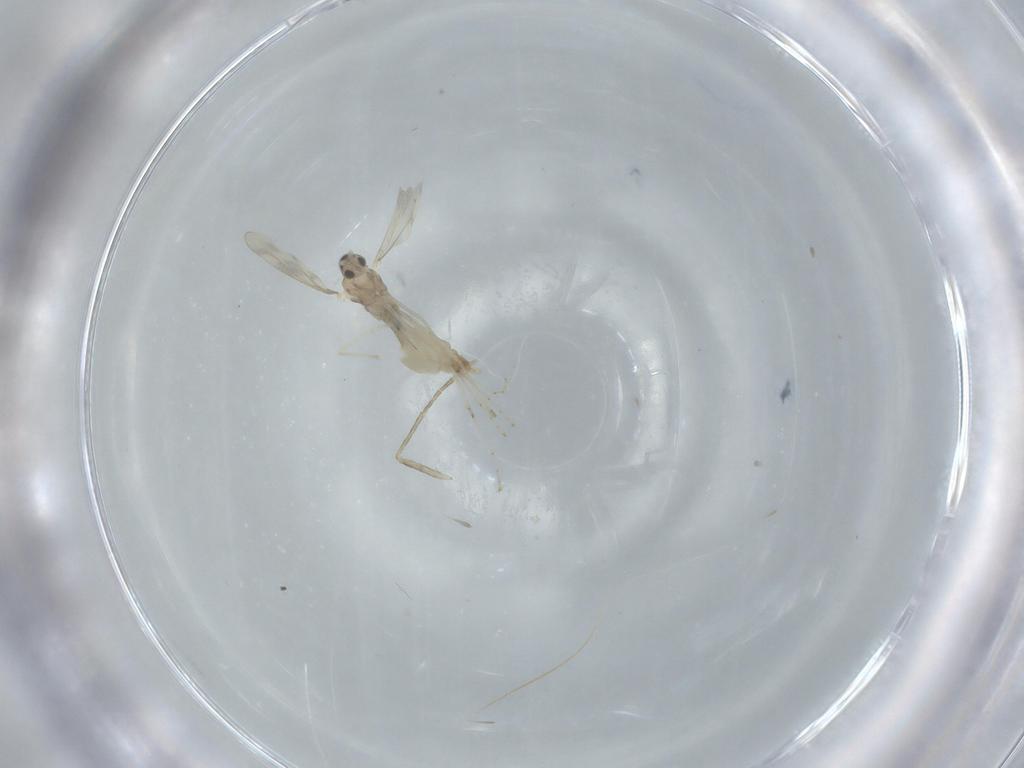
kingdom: Animalia
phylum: Arthropoda
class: Insecta
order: Diptera
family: Psychodidae
